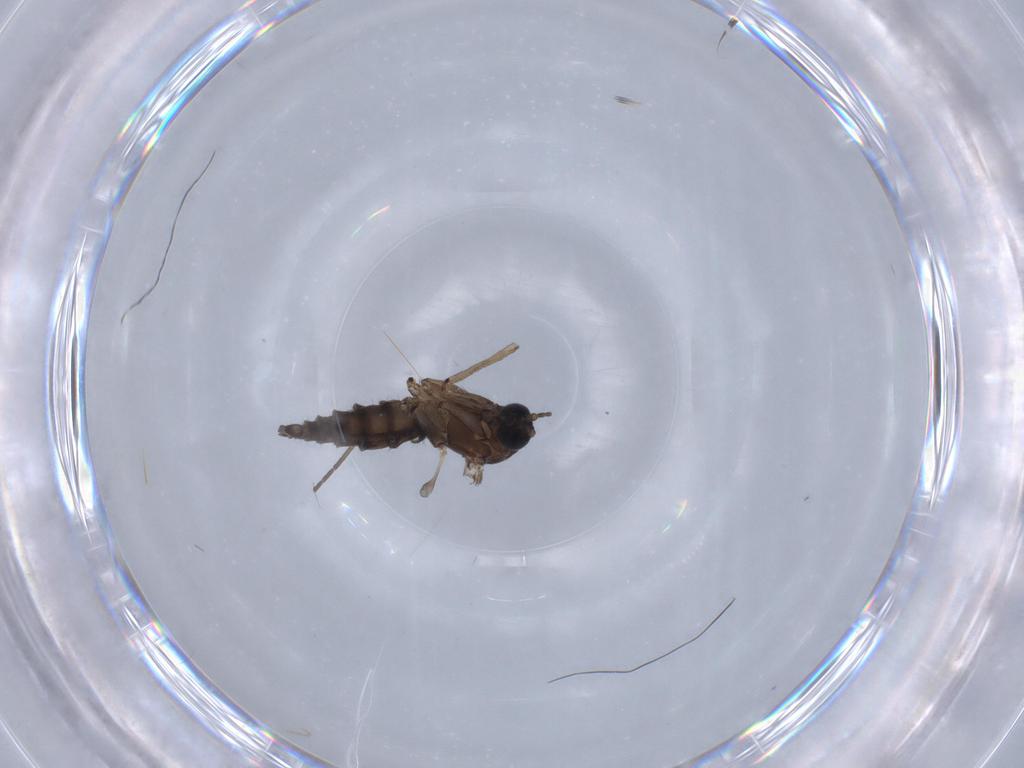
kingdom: Animalia
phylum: Arthropoda
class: Insecta
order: Diptera
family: Sciaridae
